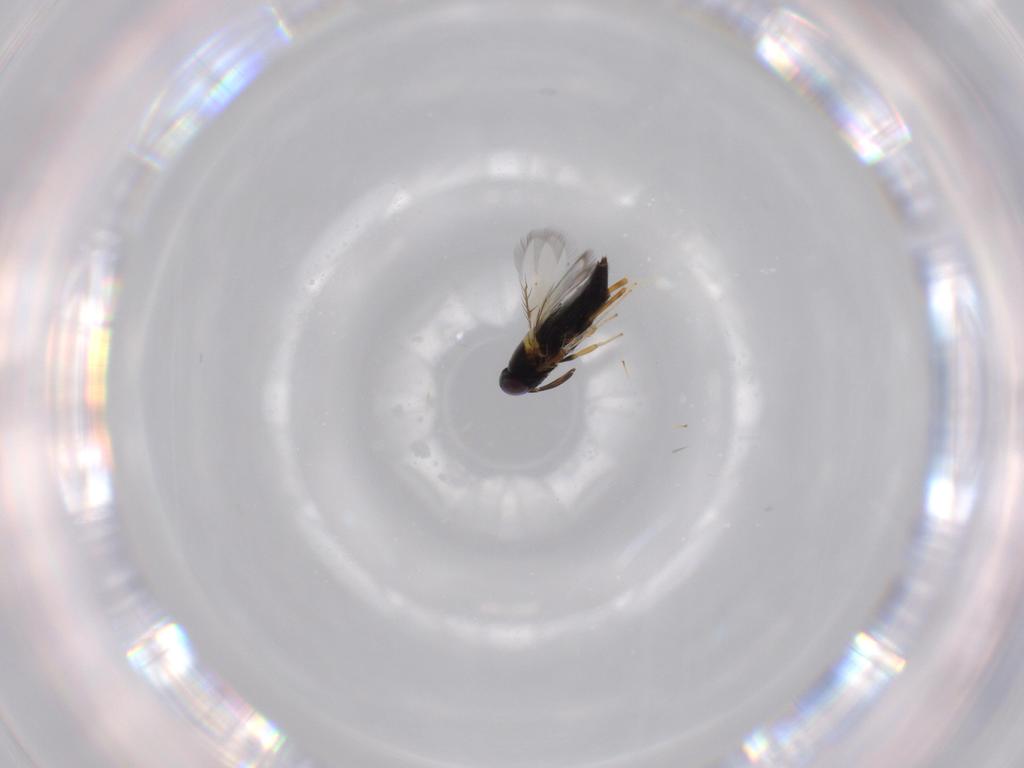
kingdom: Animalia
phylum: Arthropoda
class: Insecta
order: Hymenoptera
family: Signiphoridae
